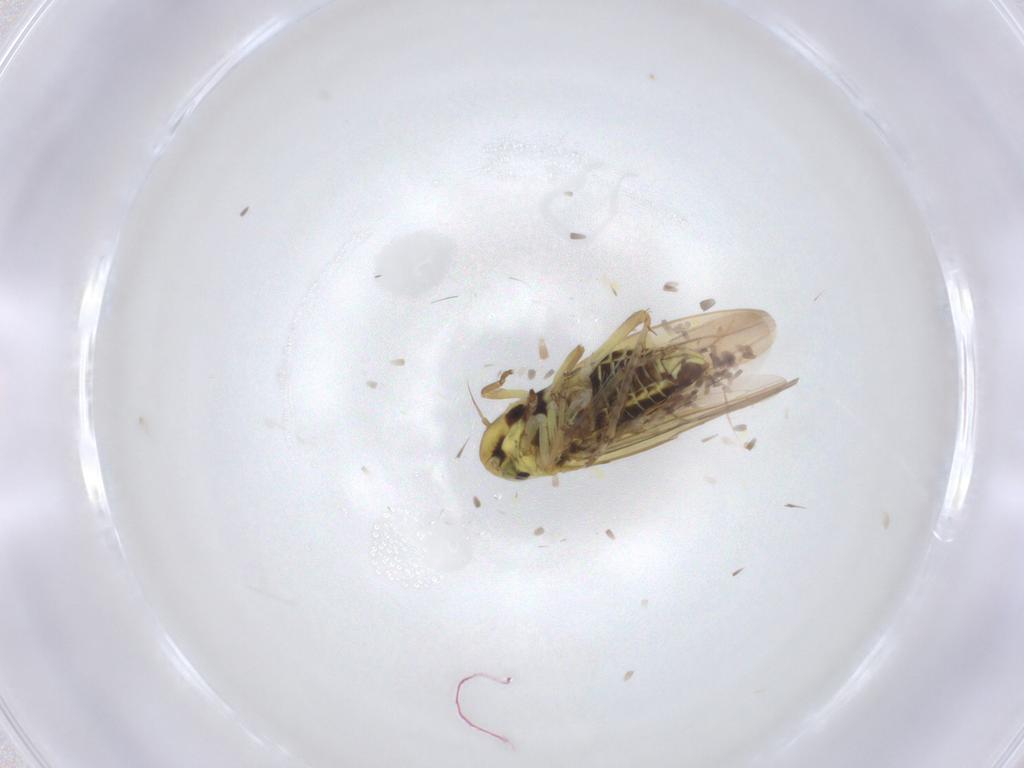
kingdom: Animalia
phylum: Arthropoda
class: Insecta
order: Hemiptera
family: Cicadellidae
